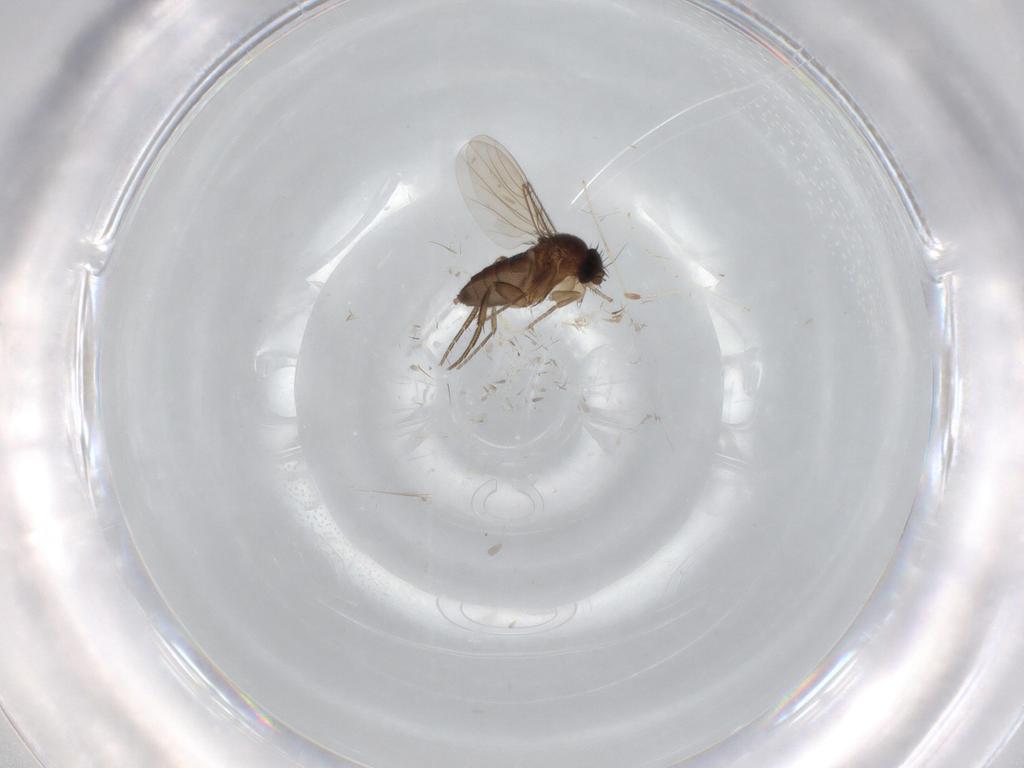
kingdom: Animalia
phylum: Arthropoda
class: Insecta
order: Diptera
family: Phoridae
